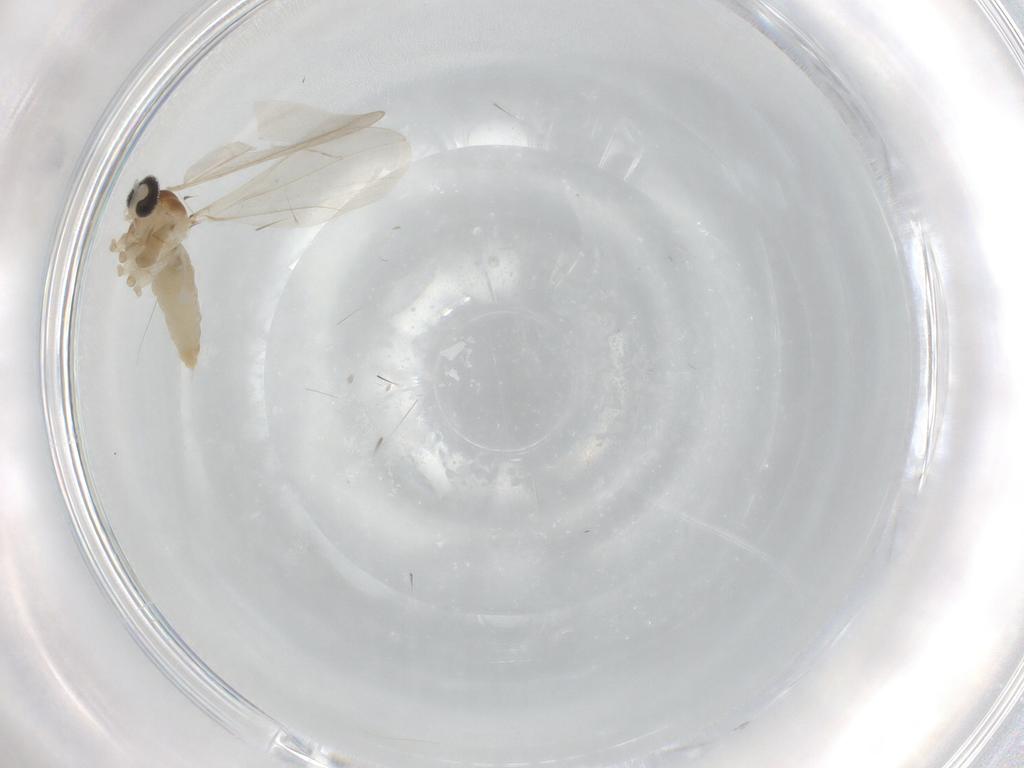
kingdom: Animalia
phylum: Arthropoda
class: Insecta
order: Diptera
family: Cecidomyiidae
